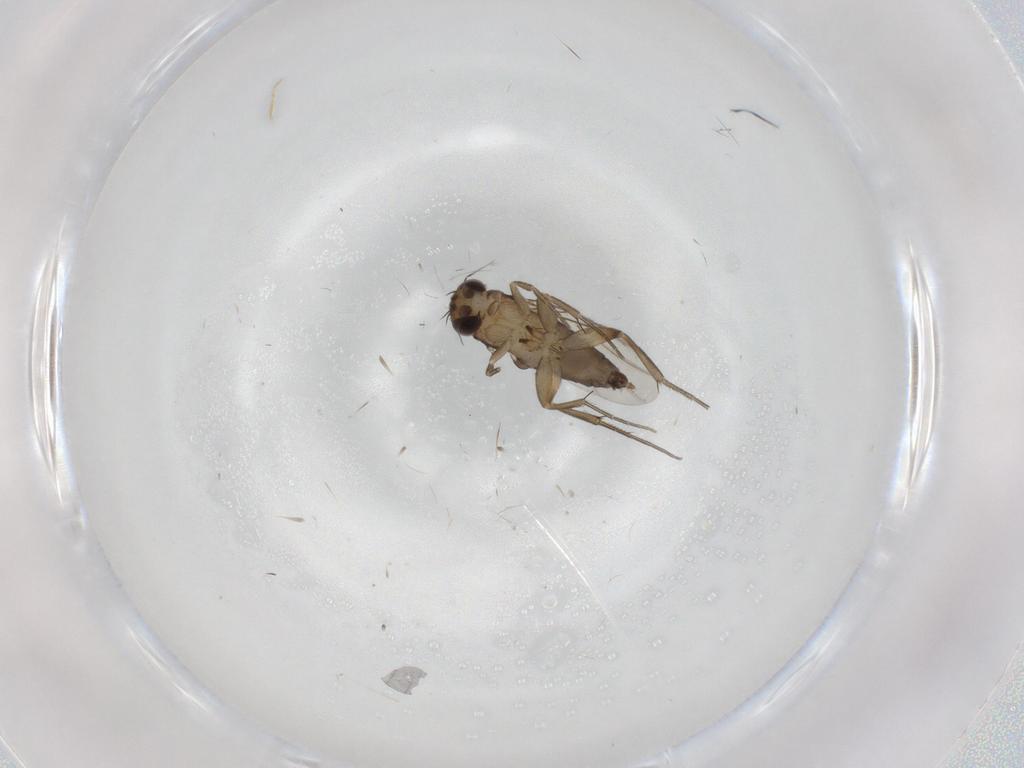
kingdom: Animalia
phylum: Arthropoda
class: Insecta
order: Diptera
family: Phoridae
